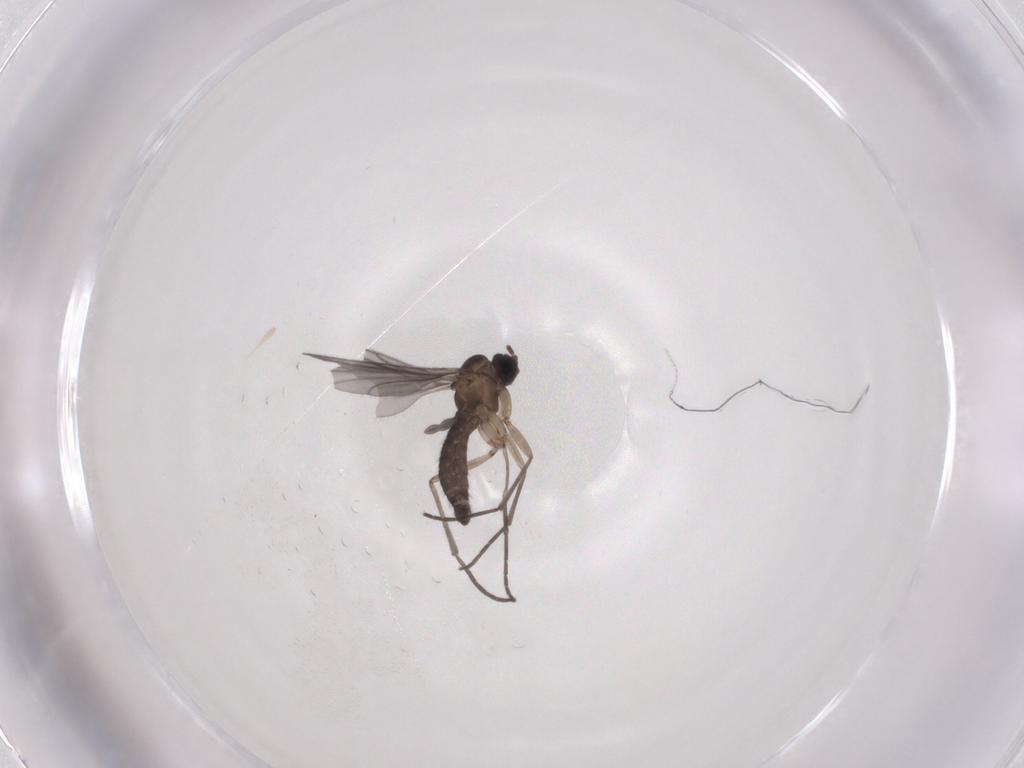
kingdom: Animalia
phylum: Arthropoda
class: Insecta
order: Diptera
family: Sciaridae
